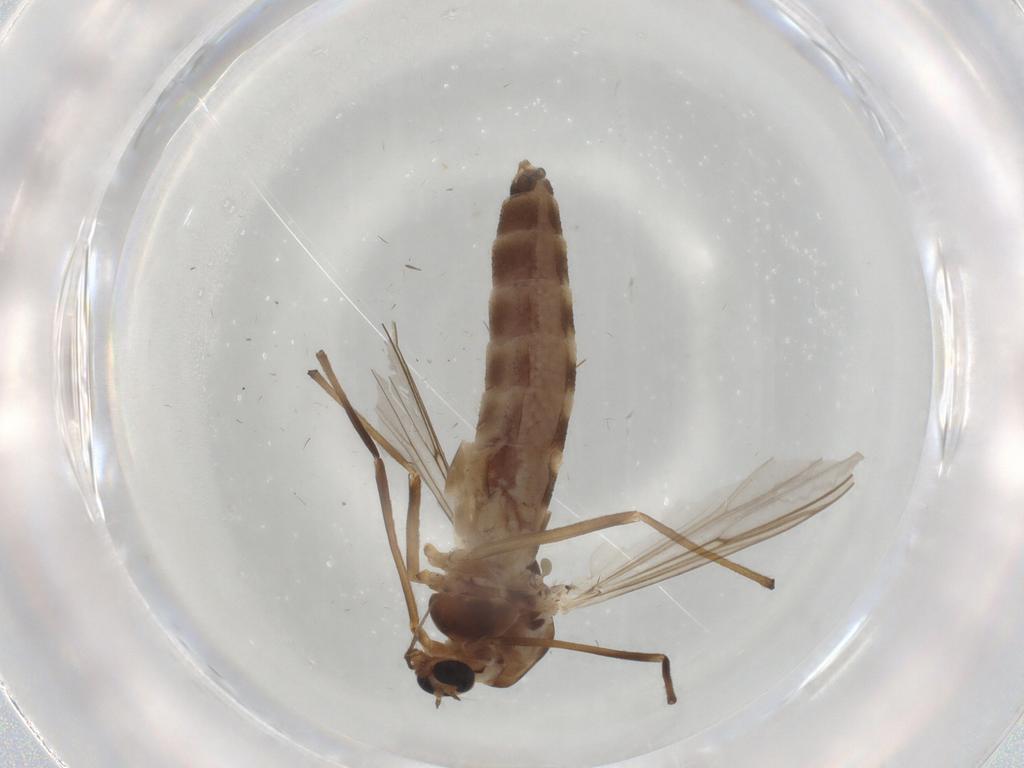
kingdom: Animalia
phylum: Arthropoda
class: Insecta
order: Diptera
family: Chironomidae
